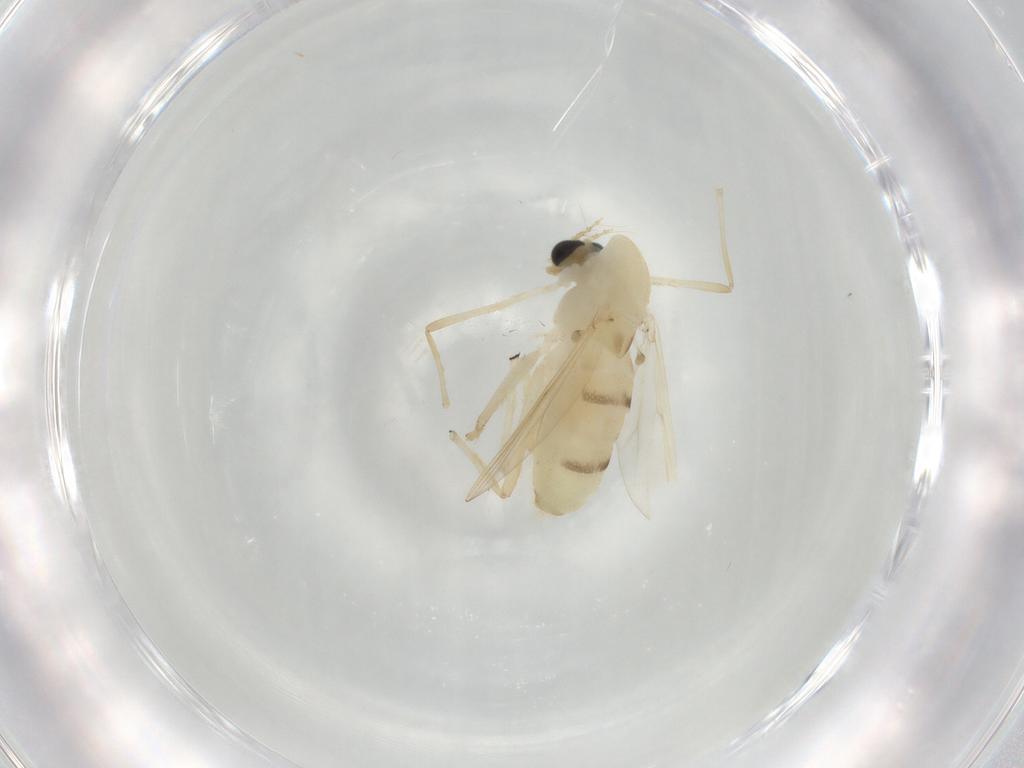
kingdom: Animalia
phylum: Arthropoda
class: Insecta
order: Diptera
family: Chironomidae
